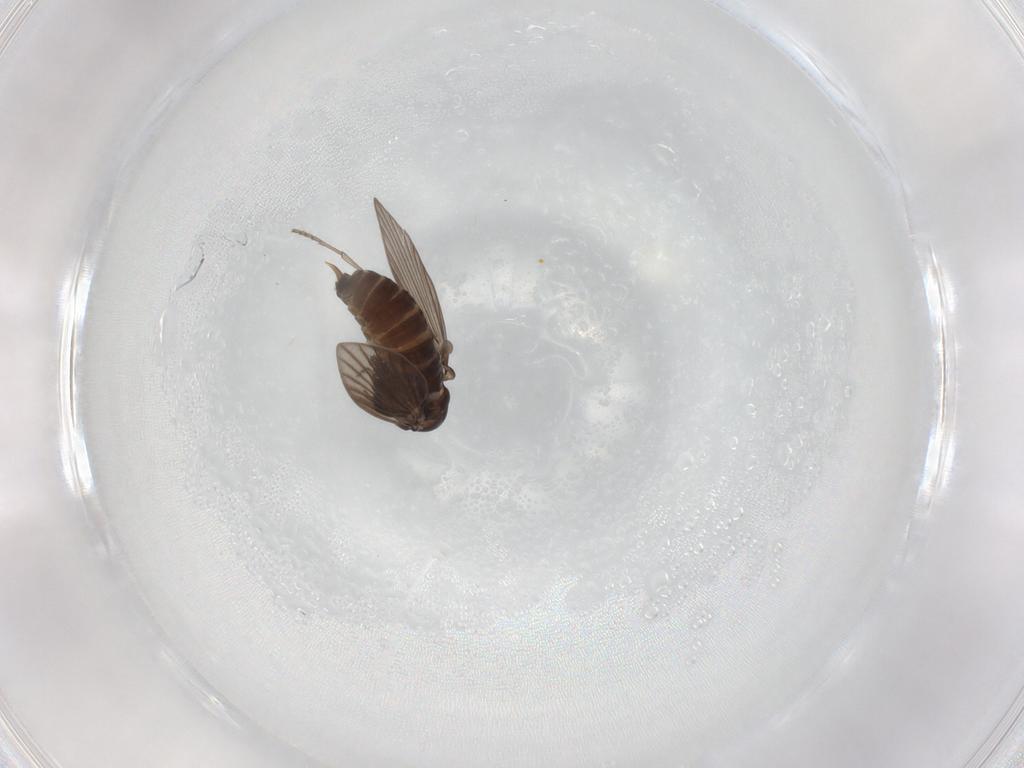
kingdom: Animalia
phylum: Arthropoda
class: Insecta
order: Diptera
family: Psychodidae
